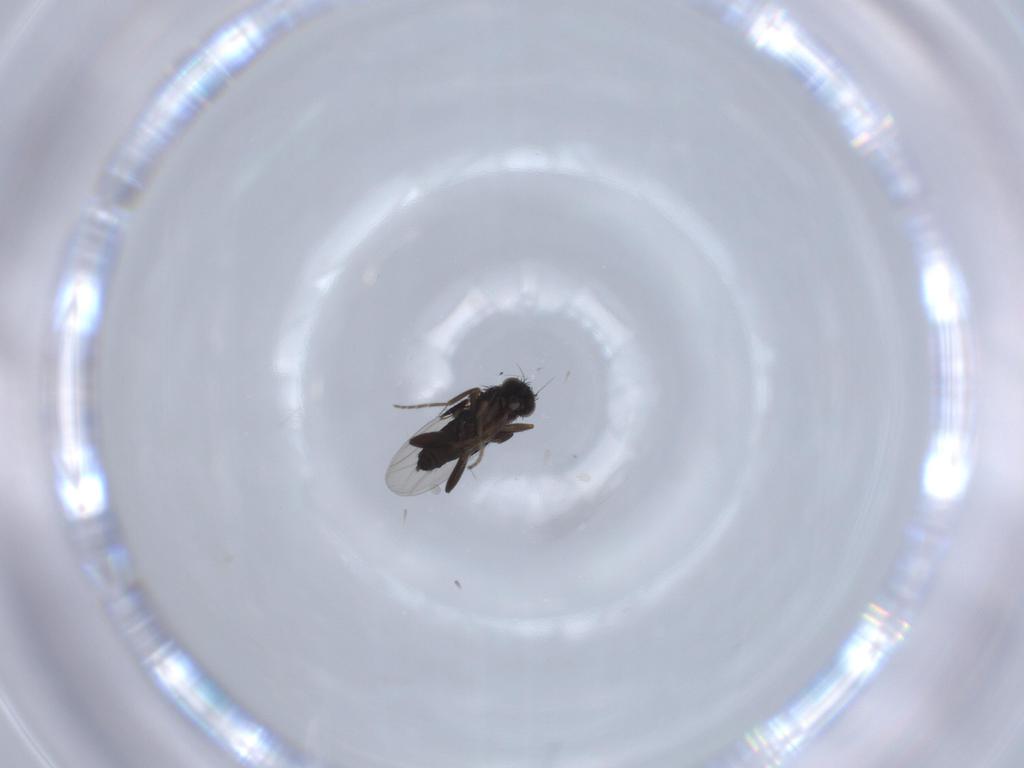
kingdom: Animalia
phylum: Arthropoda
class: Insecta
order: Diptera
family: Phoridae
